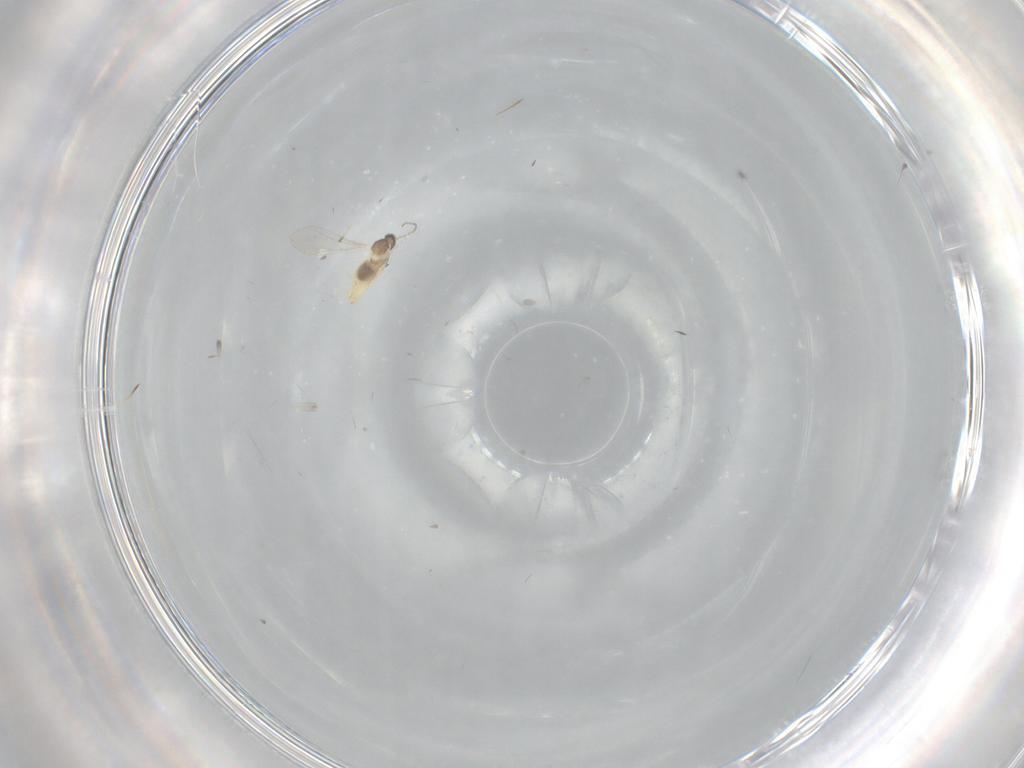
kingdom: Animalia
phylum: Arthropoda
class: Insecta
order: Diptera
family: Cecidomyiidae
